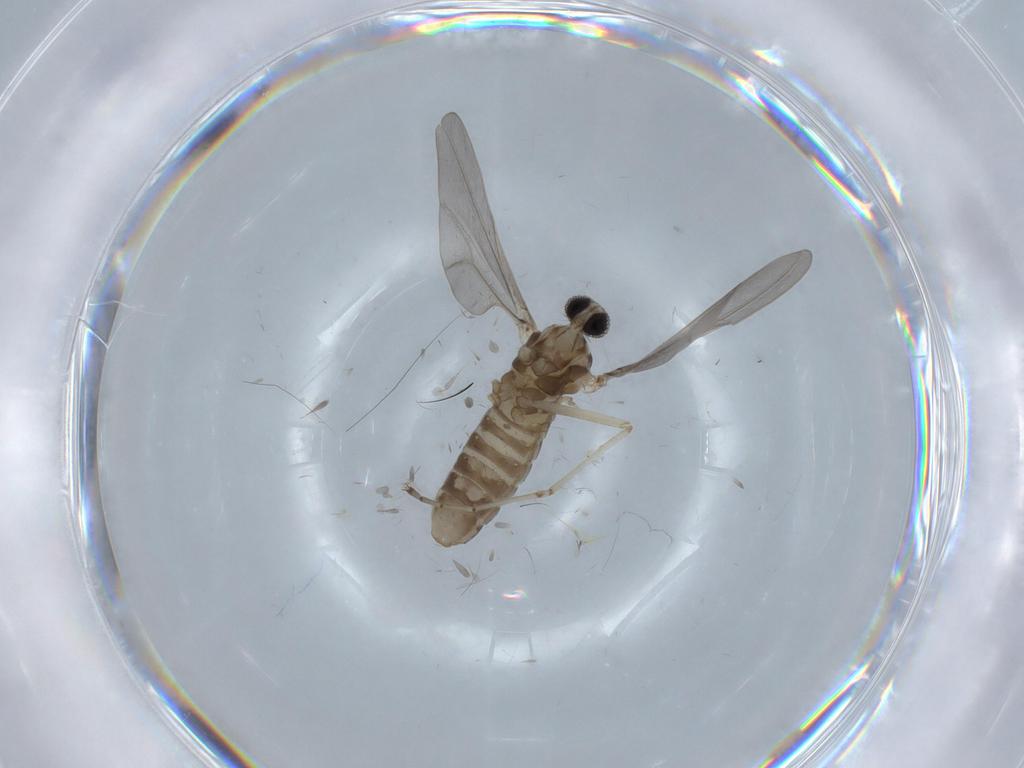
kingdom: Animalia
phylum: Arthropoda
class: Insecta
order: Diptera
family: Cecidomyiidae
